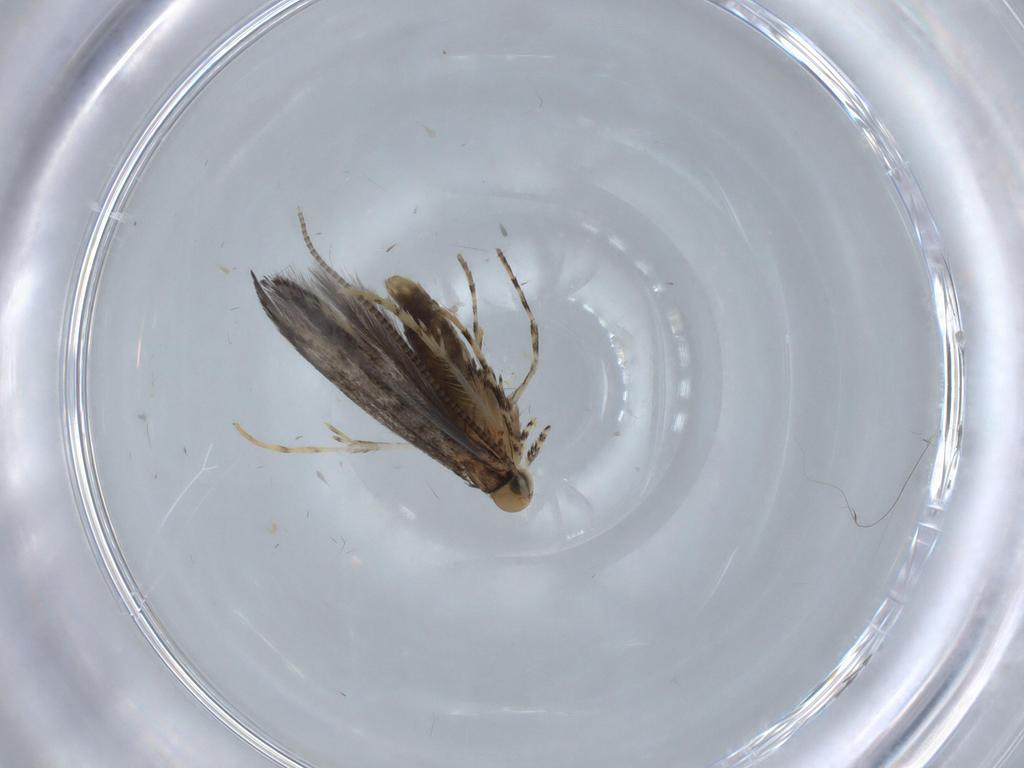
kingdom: Animalia
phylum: Arthropoda
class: Insecta
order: Lepidoptera
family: Gracillariidae
